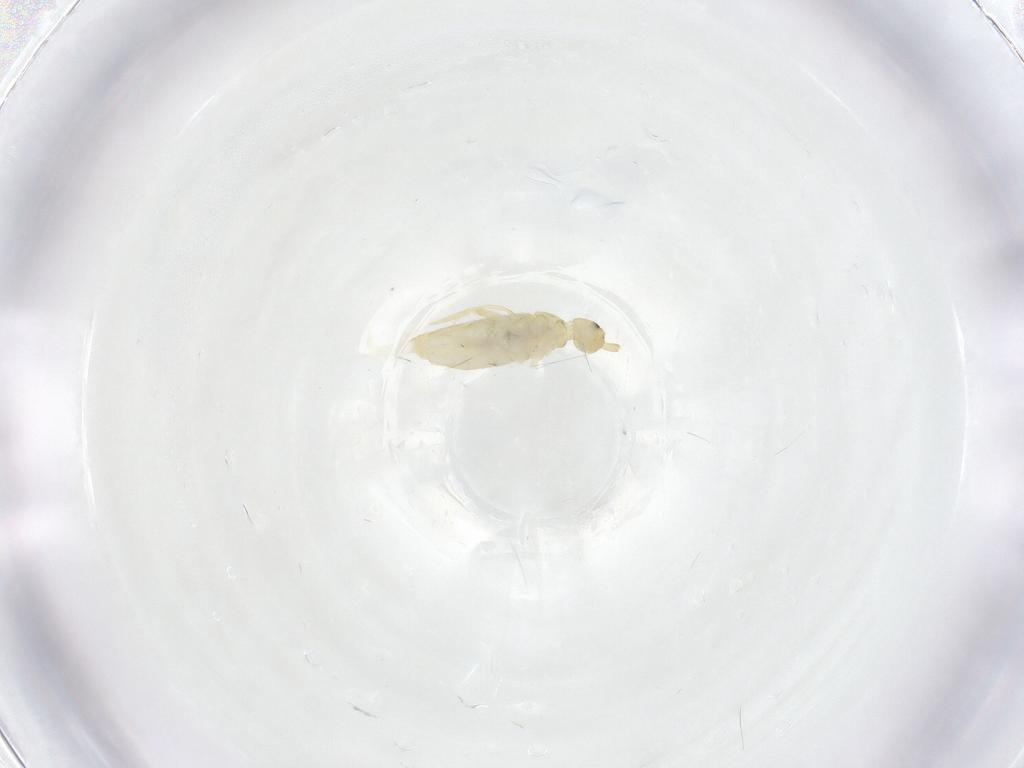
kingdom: Animalia
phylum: Arthropoda
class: Collembola
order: Entomobryomorpha
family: Entomobryidae
